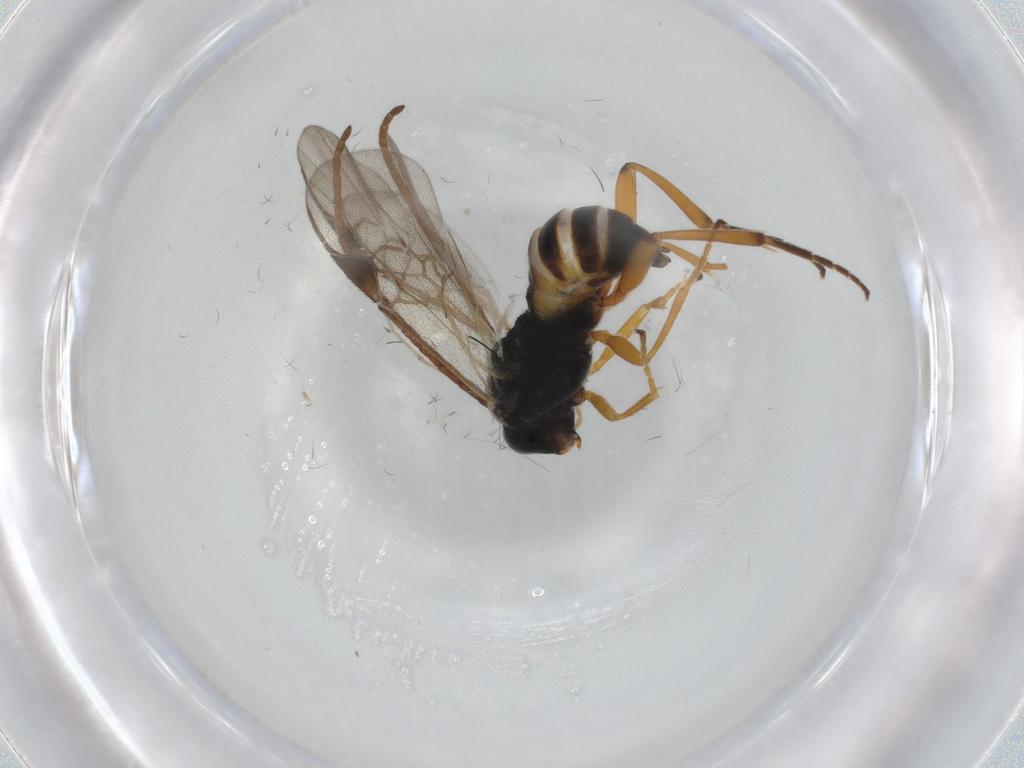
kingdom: Animalia
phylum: Arthropoda
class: Insecta
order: Hymenoptera
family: Braconidae
